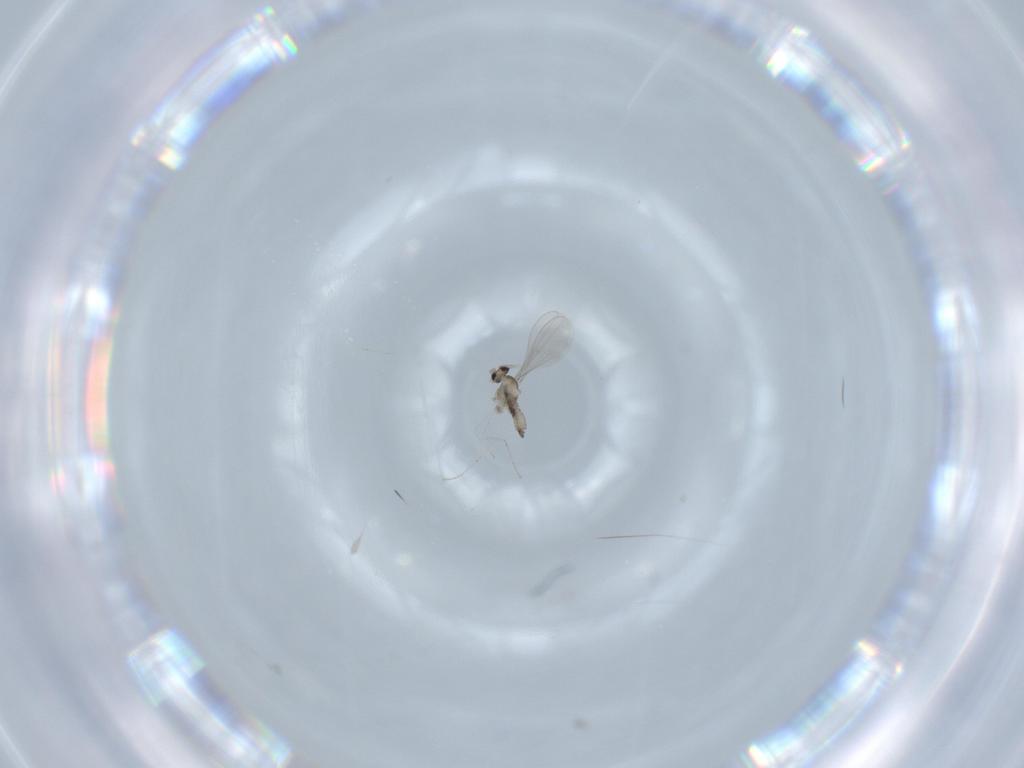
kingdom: Animalia
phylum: Arthropoda
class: Insecta
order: Diptera
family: Cecidomyiidae
